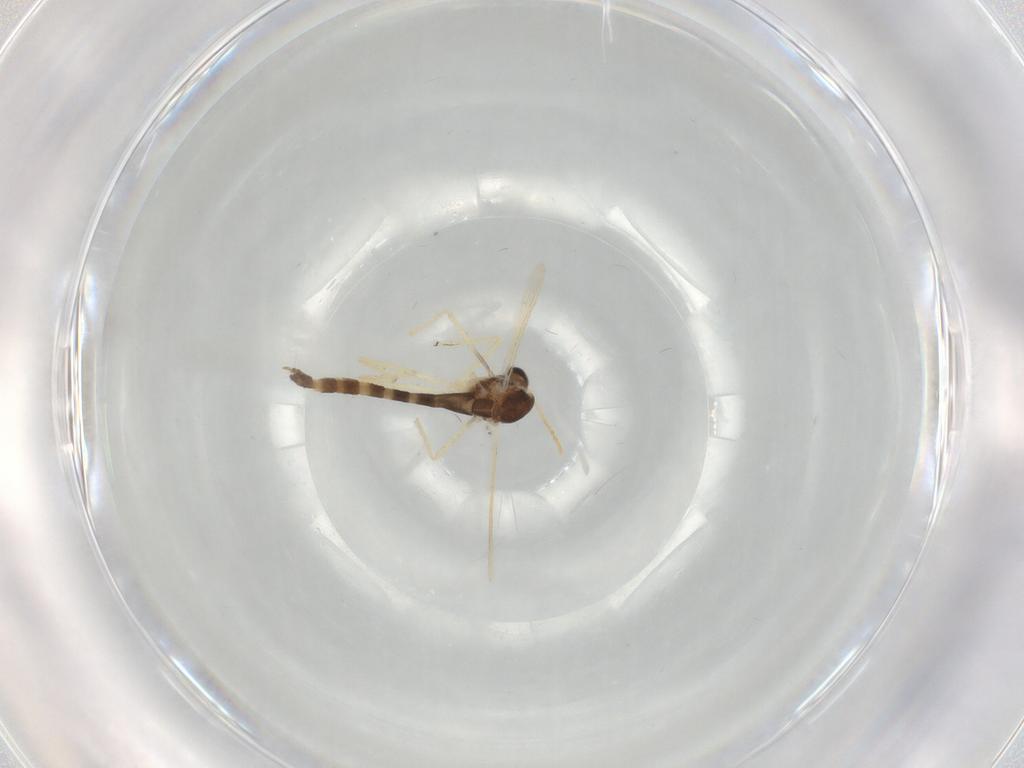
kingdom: Animalia
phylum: Arthropoda
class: Insecta
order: Diptera
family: Chironomidae
